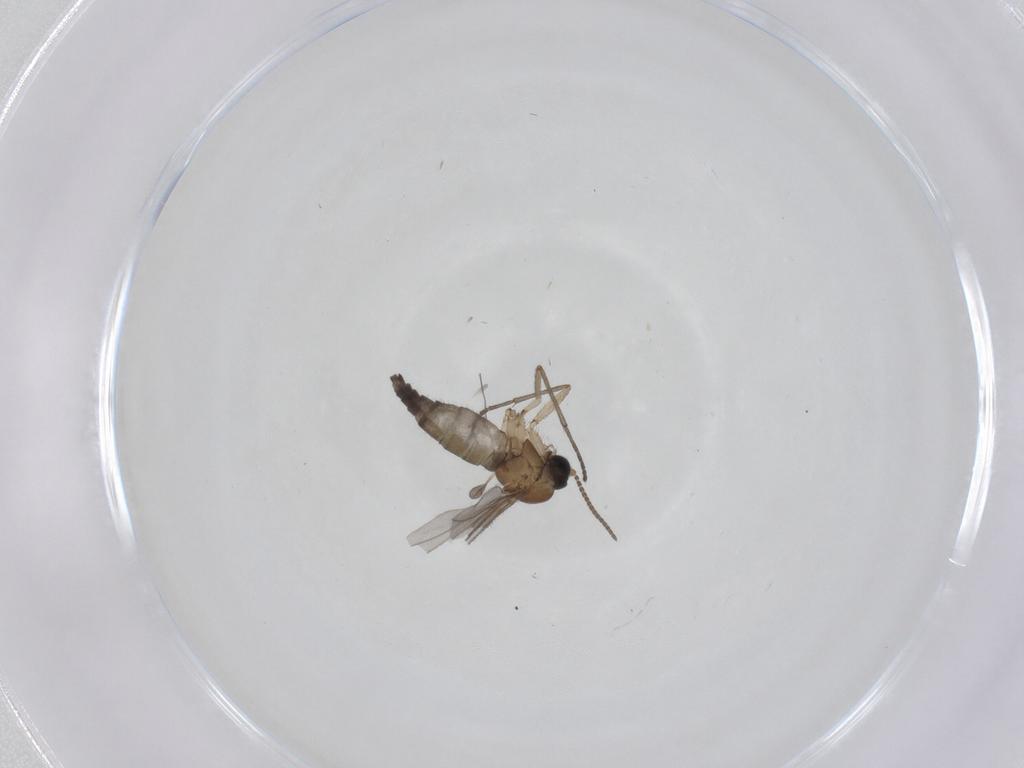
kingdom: Animalia
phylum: Arthropoda
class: Insecta
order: Diptera
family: Sciaridae
